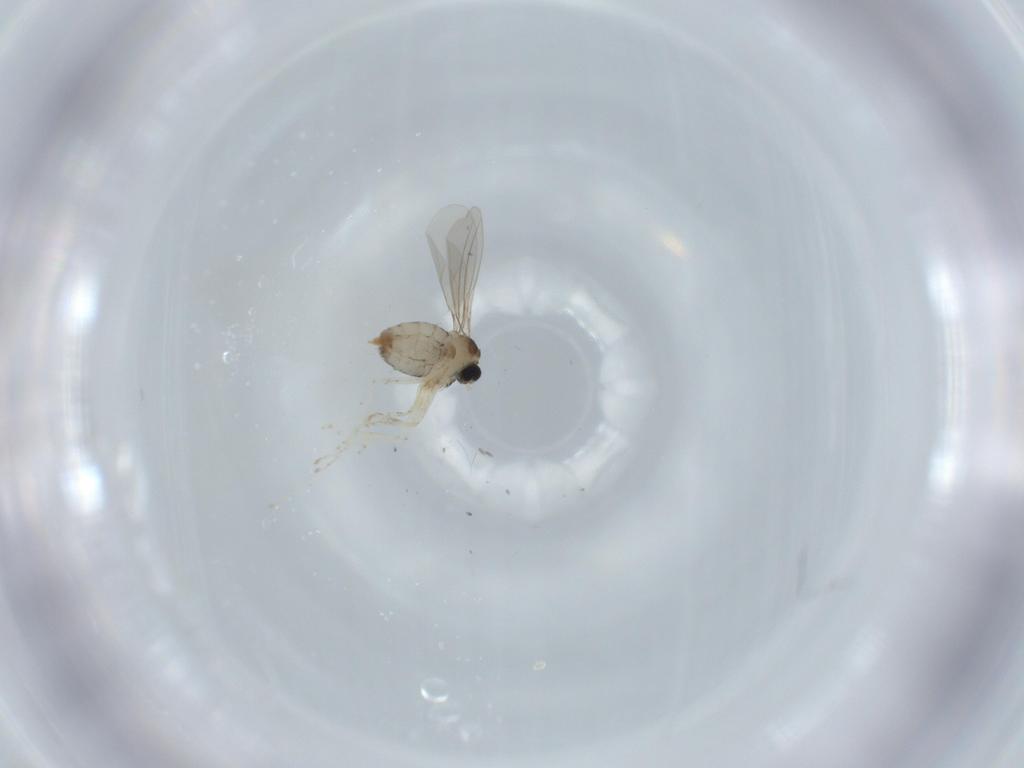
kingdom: Animalia
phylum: Arthropoda
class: Insecta
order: Diptera
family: Cecidomyiidae
